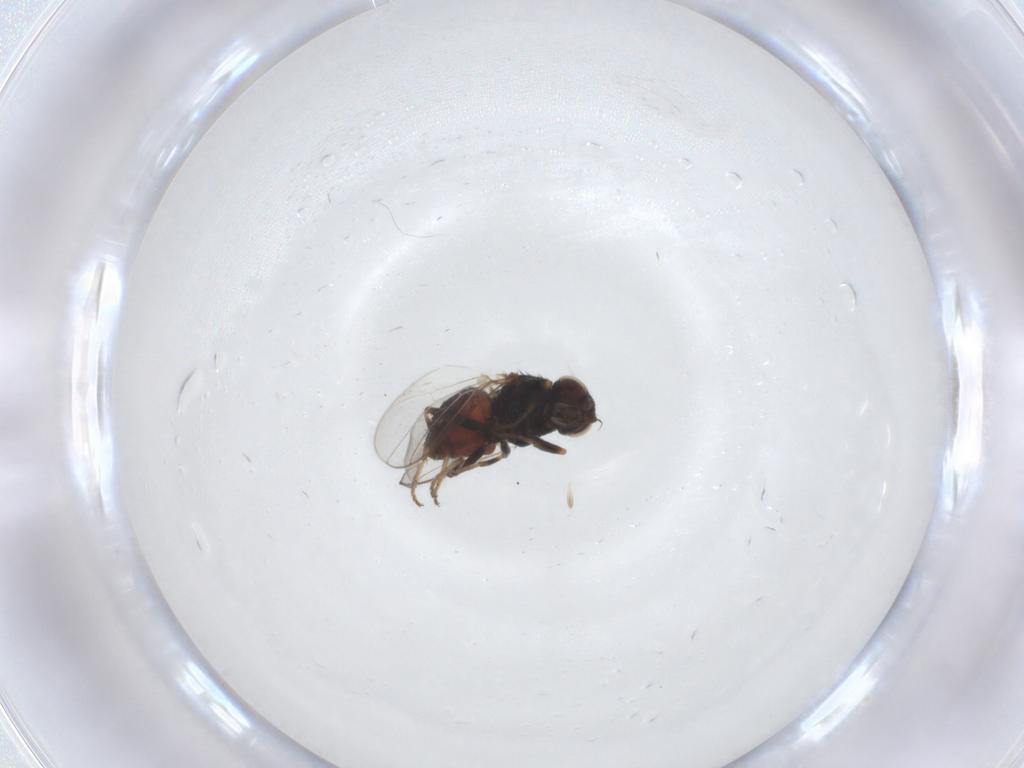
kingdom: Animalia
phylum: Arthropoda
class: Insecta
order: Diptera
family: Chloropidae
